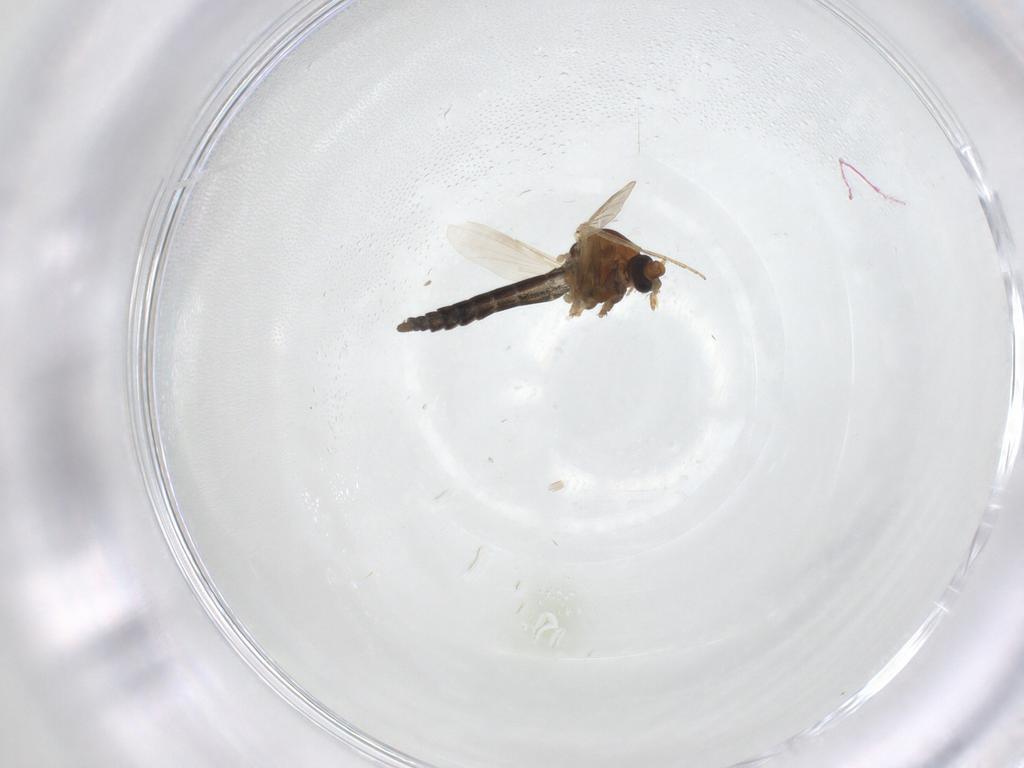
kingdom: Animalia
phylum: Arthropoda
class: Insecta
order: Diptera
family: Ceratopogonidae
